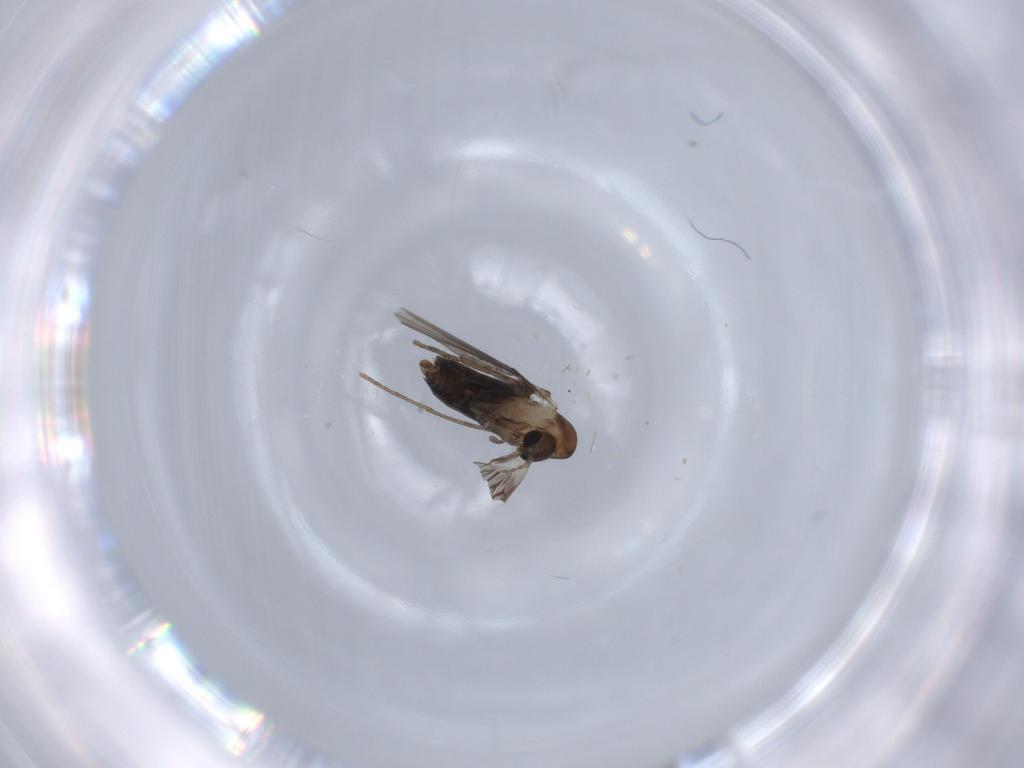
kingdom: Animalia
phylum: Arthropoda
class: Insecta
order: Diptera
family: Psychodidae
